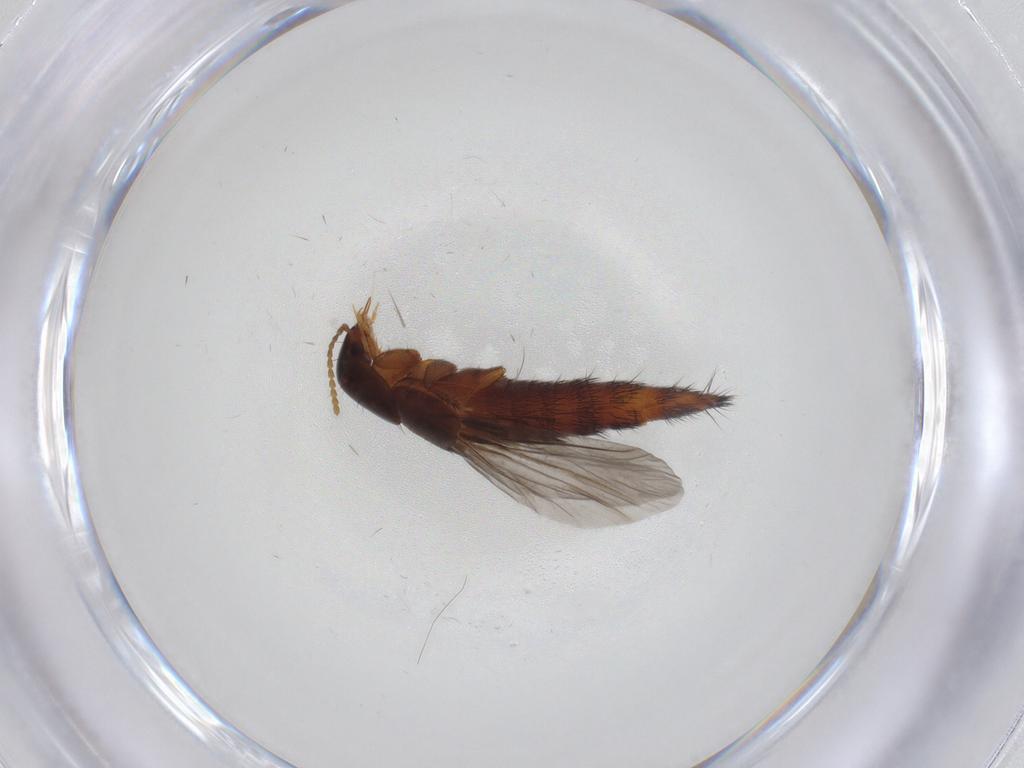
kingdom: Animalia
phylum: Arthropoda
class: Insecta
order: Coleoptera
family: Staphylinidae
